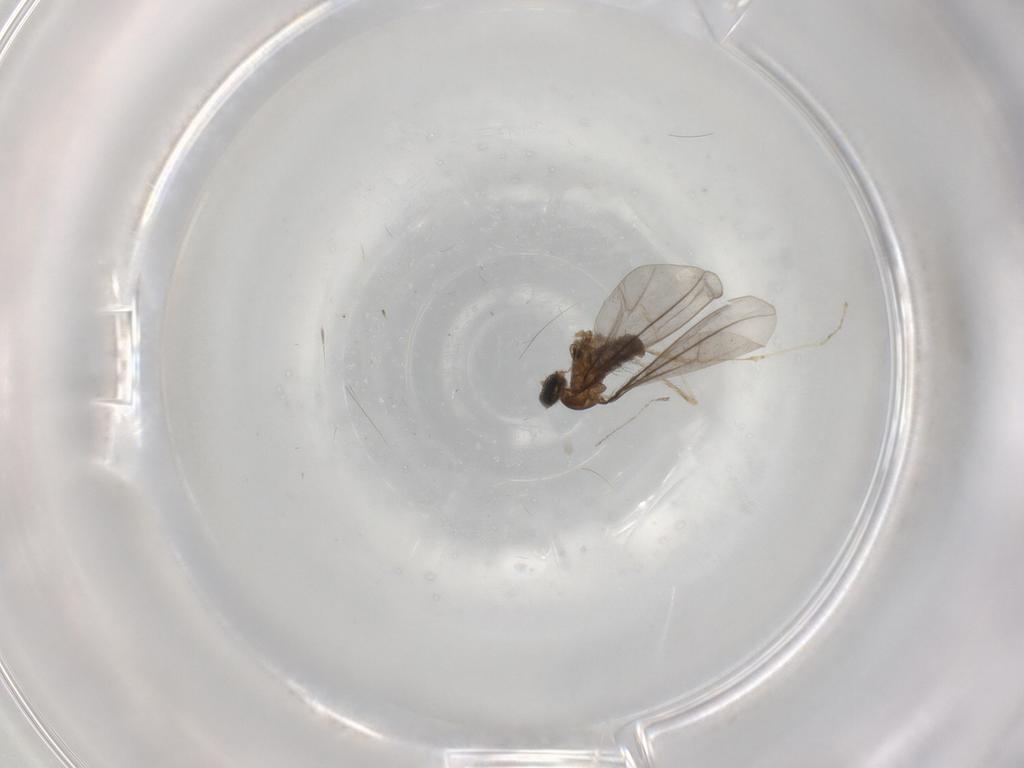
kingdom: Animalia
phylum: Arthropoda
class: Insecta
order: Diptera
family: Cecidomyiidae
